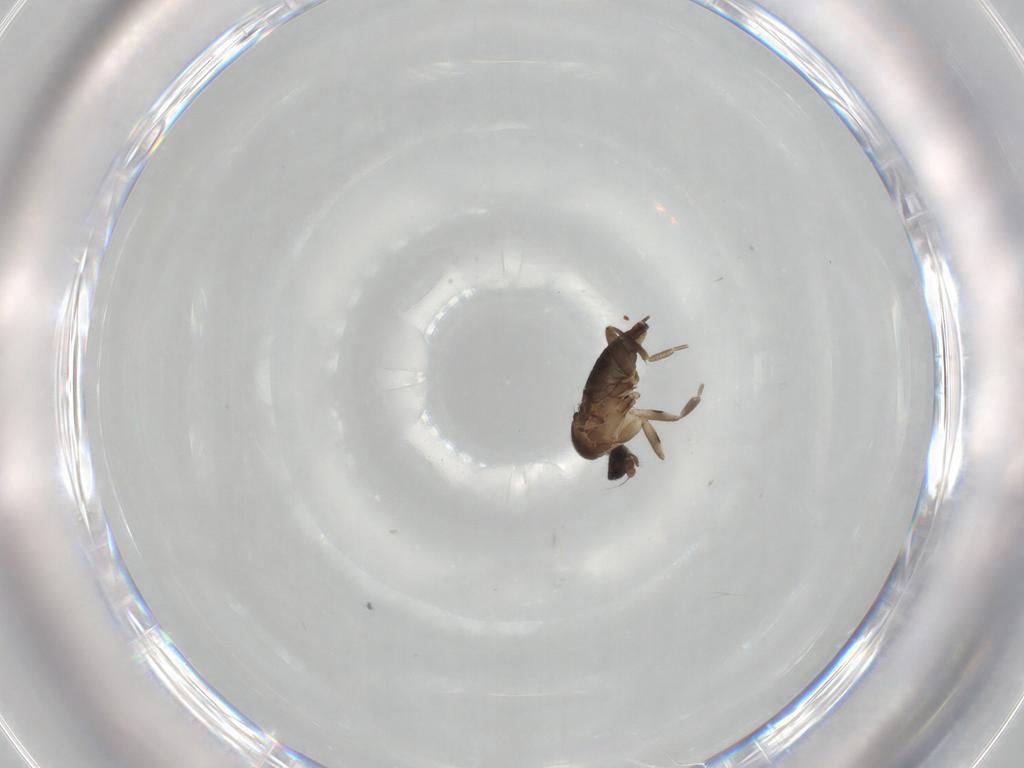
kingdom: Animalia
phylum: Arthropoda
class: Insecta
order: Diptera
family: Phoridae
